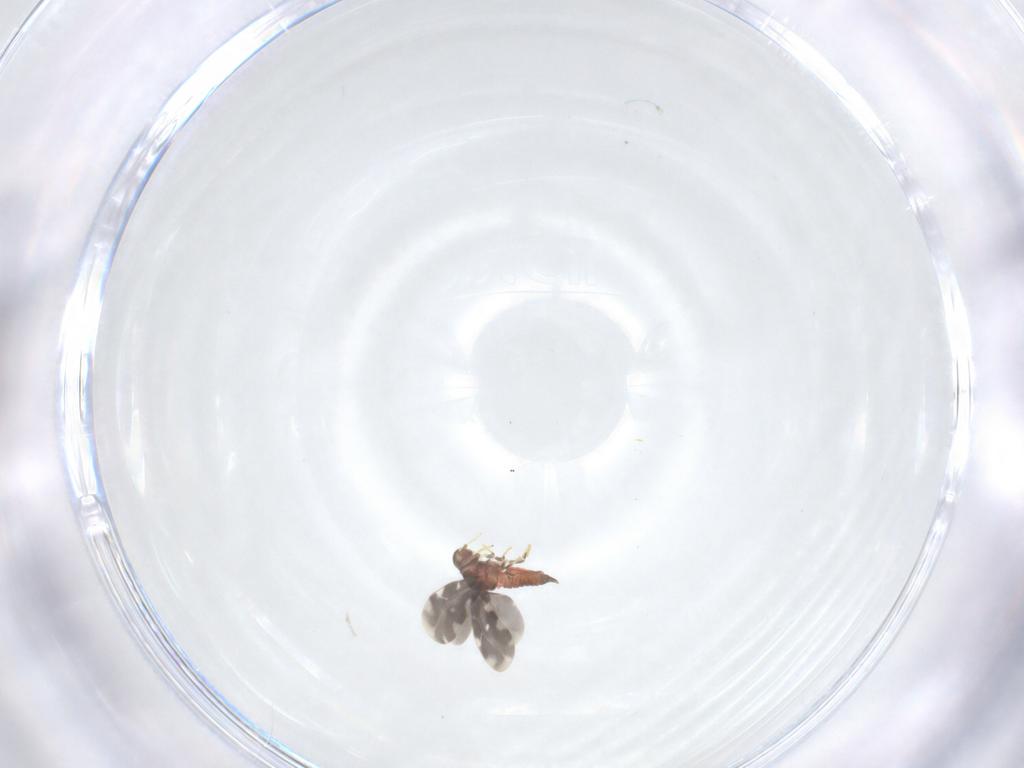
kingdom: Animalia
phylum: Arthropoda
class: Insecta
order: Hemiptera
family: Aleyrodidae
